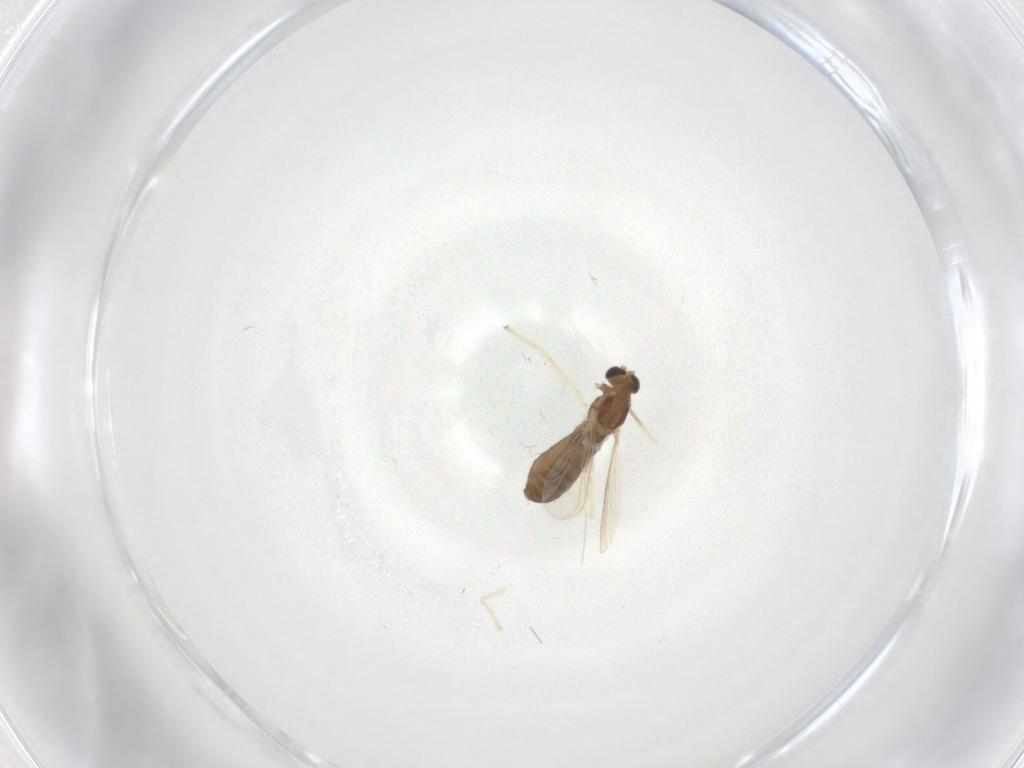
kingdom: Animalia
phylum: Arthropoda
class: Insecta
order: Diptera
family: Chironomidae
